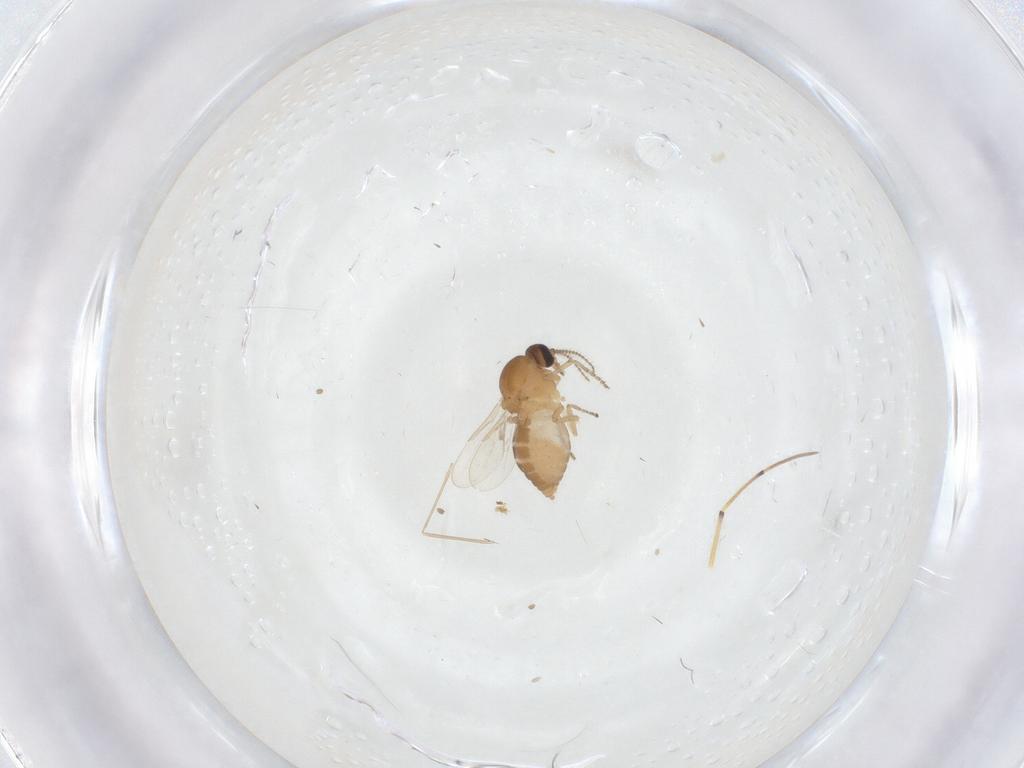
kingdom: Animalia
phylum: Arthropoda
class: Insecta
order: Diptera
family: Ceratopogonidae
